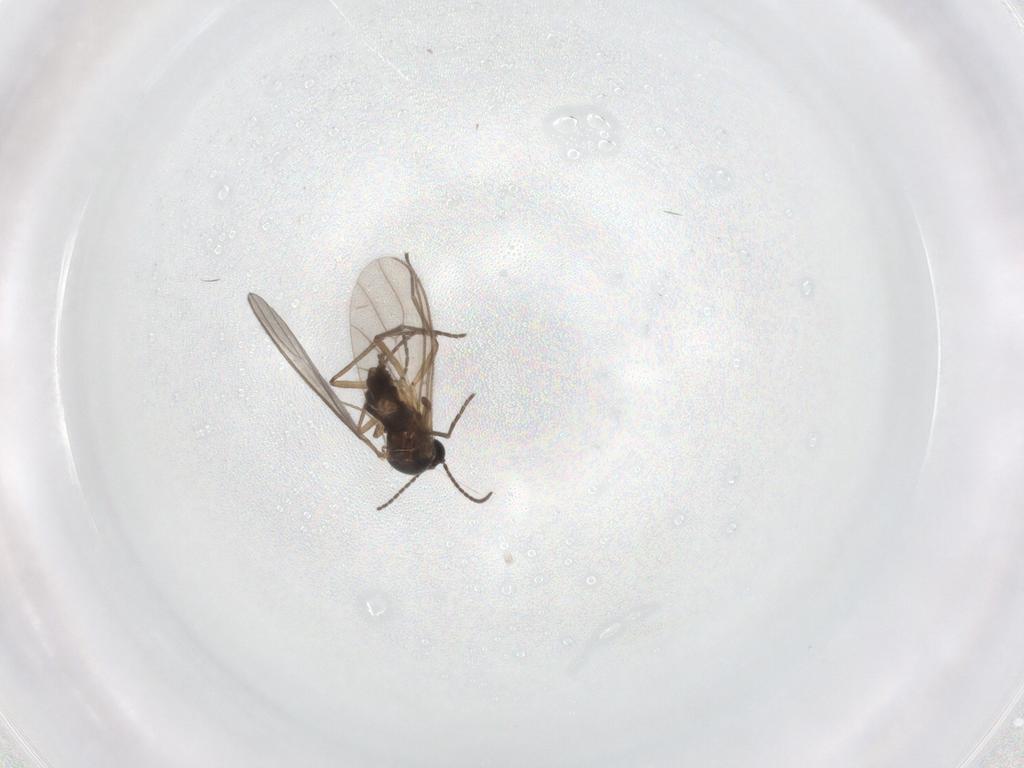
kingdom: Animalia
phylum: Arthropoda
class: Insecta
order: Diptera
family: Sciaridae
